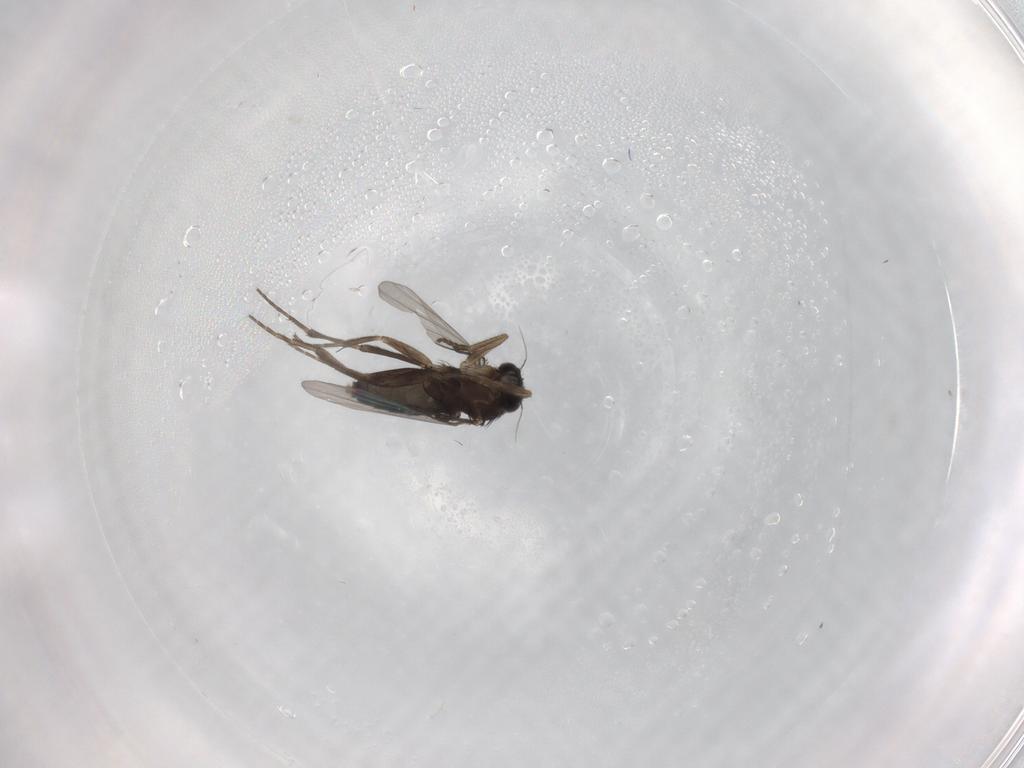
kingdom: Animalia
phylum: Arthropoda
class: Insecta
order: Diptera
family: Phoridae
